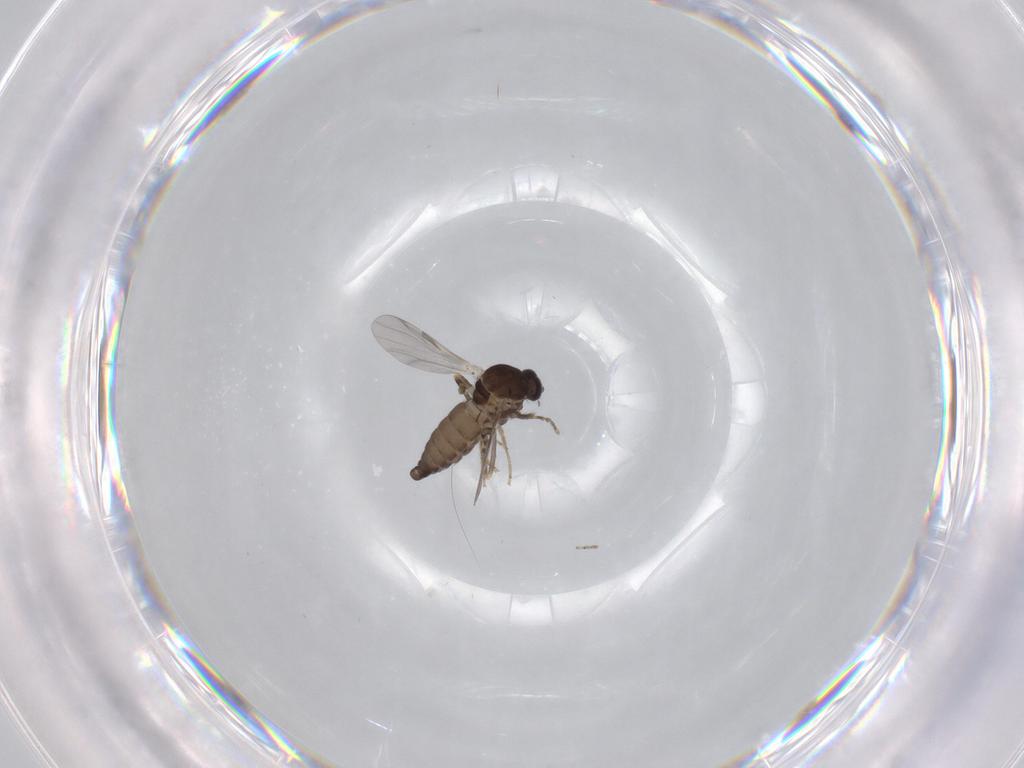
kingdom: Animalia
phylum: Arthropoda
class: Insecta
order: Diptera
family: Ceratopogonidae
